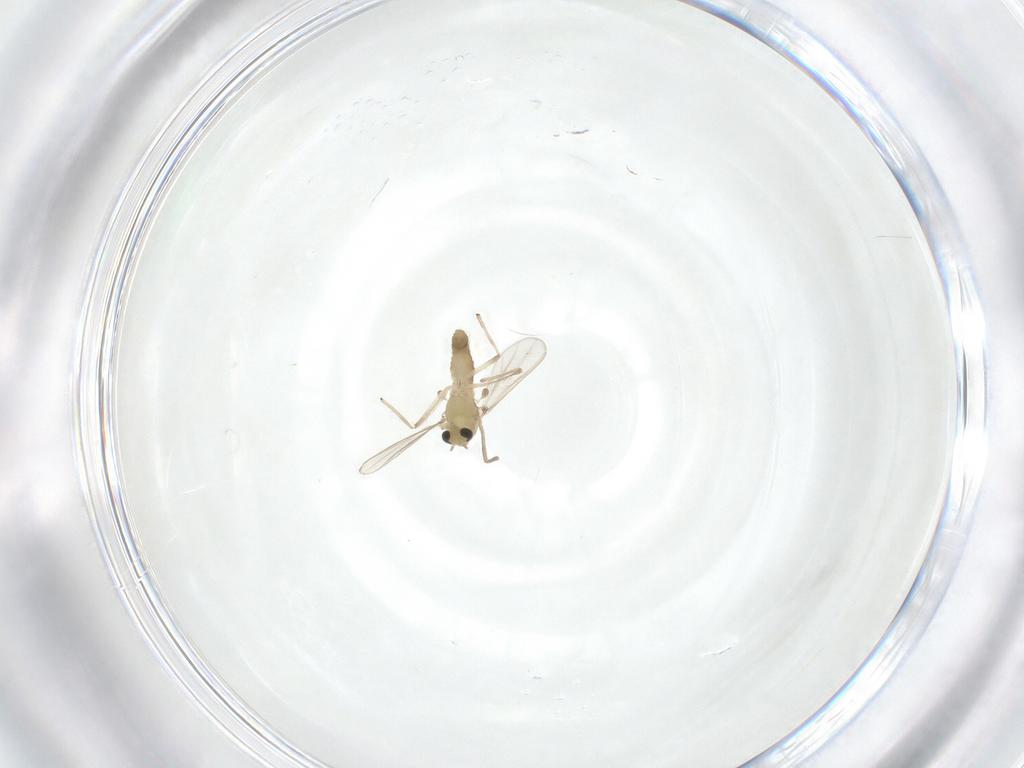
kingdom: Animalia
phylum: Arthropoda
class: Insecta
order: Diptera
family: Chironomidae
